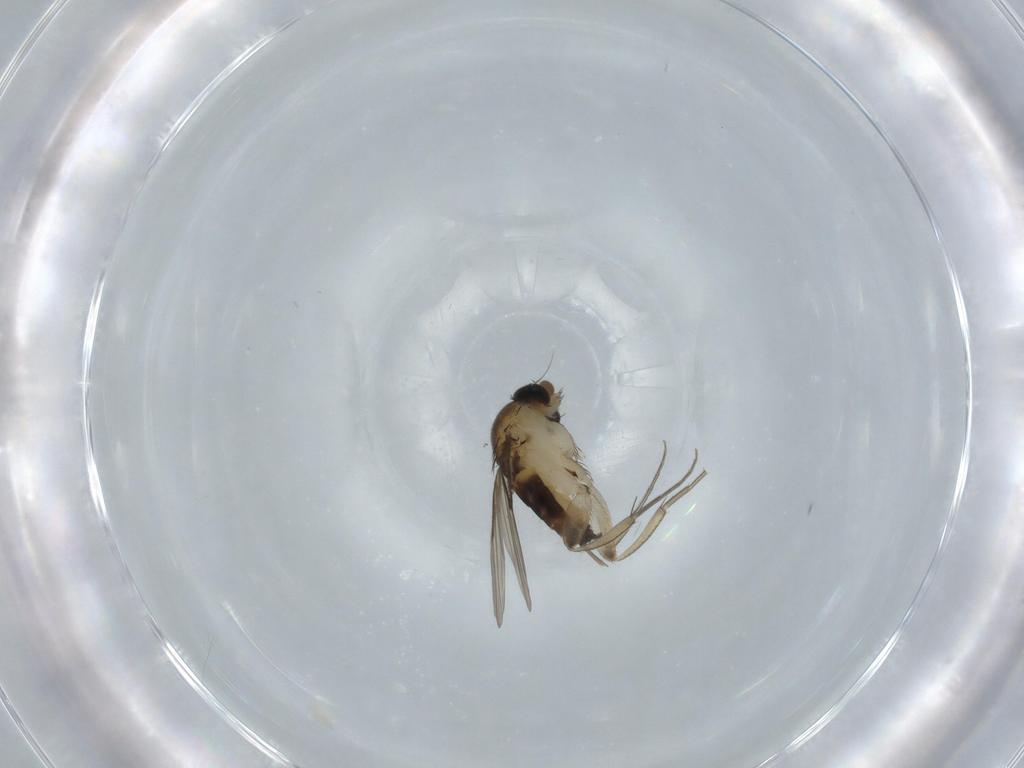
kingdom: Animalia
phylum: Arthropoda
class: Insecta
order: Diptera
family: Phoridae
